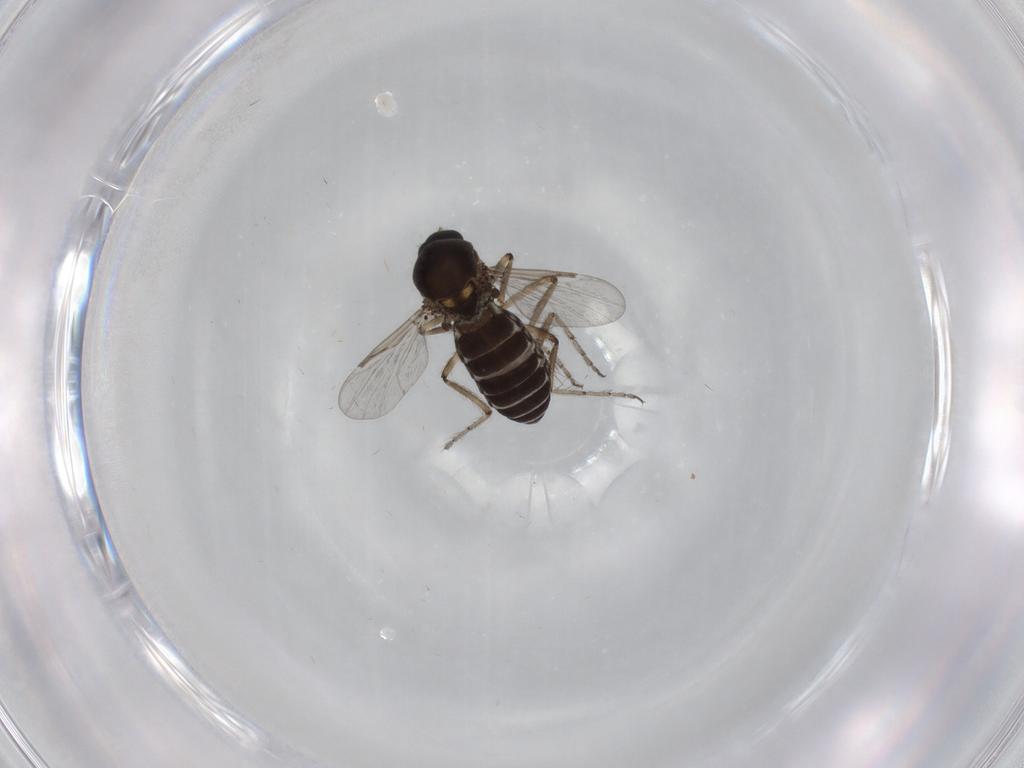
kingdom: Animalia
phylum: Arthropoda
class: Insecta
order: Diptera
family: Ceratopogonidae
